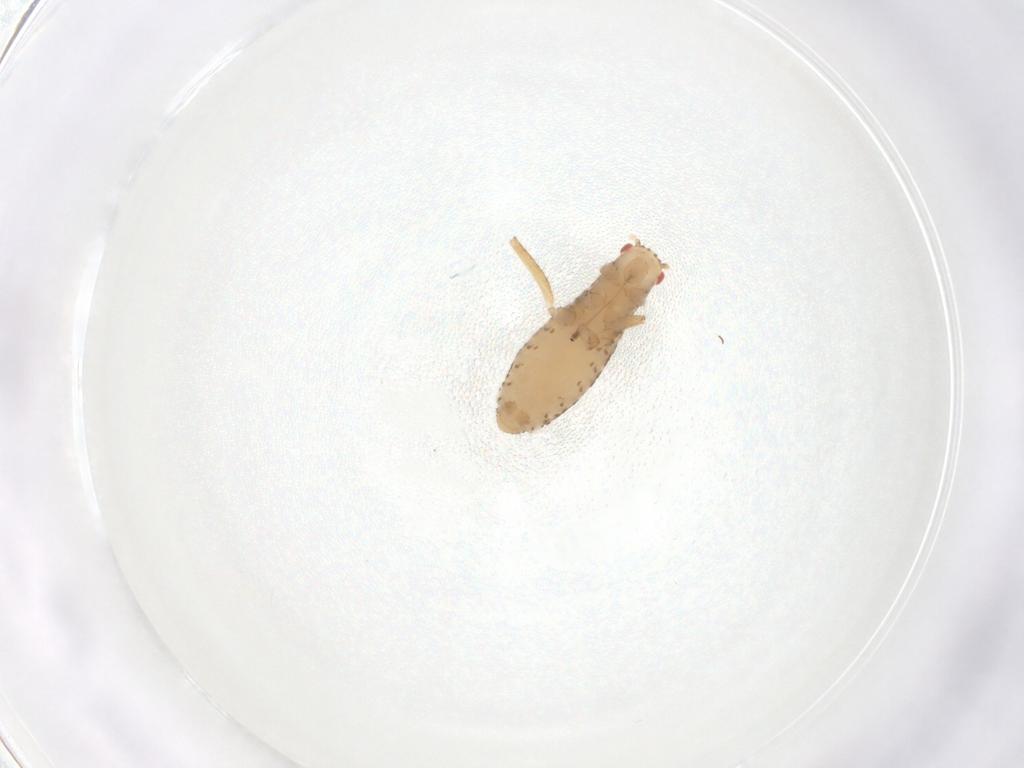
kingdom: Animalia
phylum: Arthropoda
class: Insecta
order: Hemiptera
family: Lachnidae
